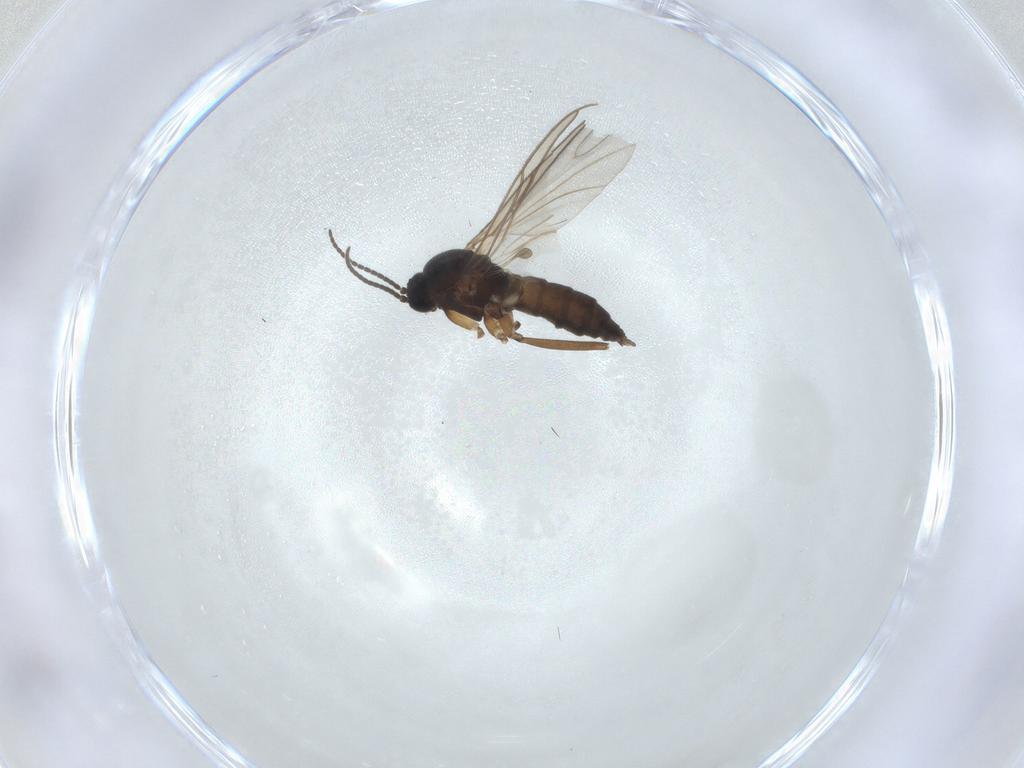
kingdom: Animalia
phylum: Arthropoda
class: Insecta
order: Diptera
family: Sciaridae
